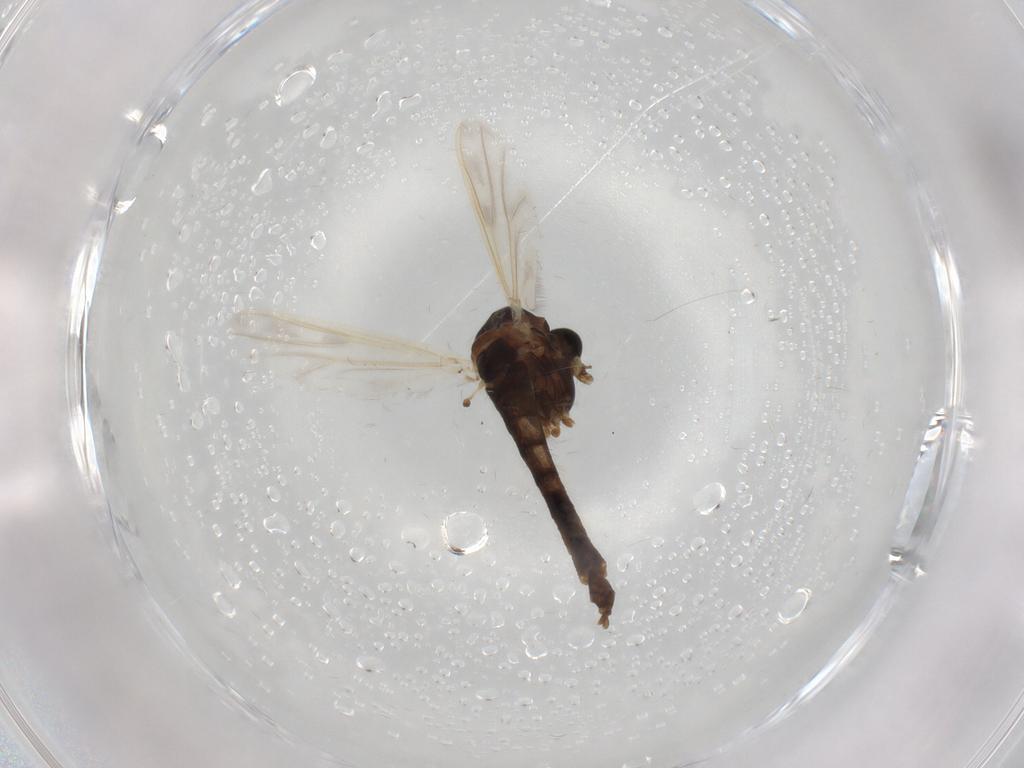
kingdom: Animalia
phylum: Arthropoda
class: Insecta
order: Diptera
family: Chironomidae
